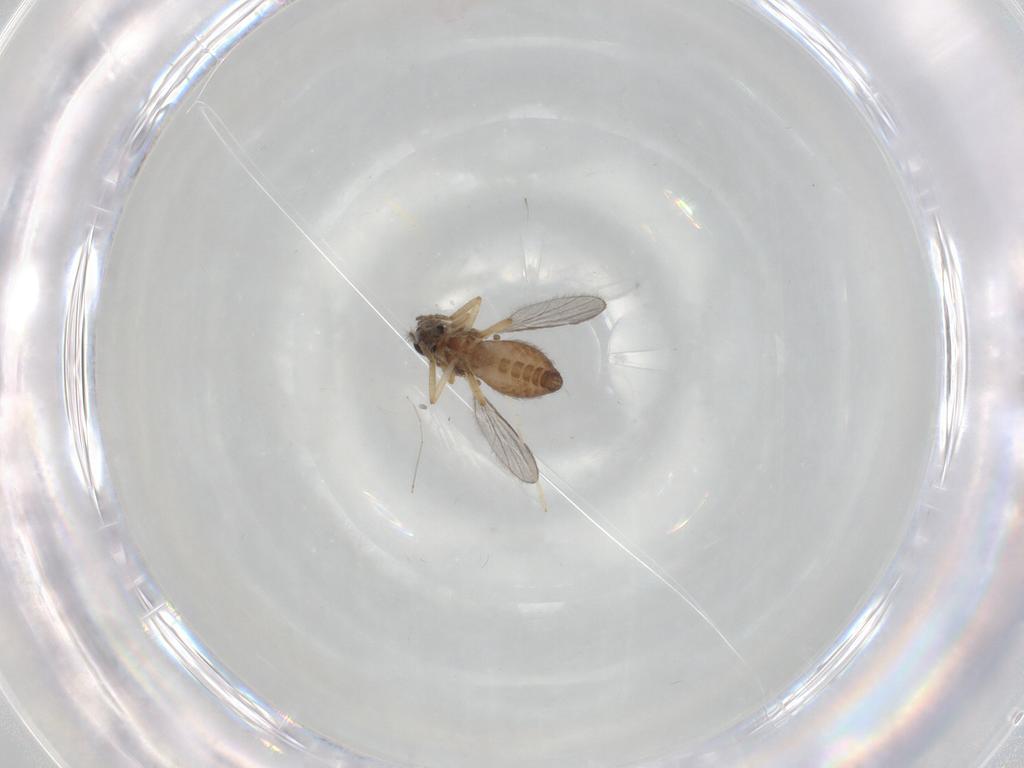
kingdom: Animalia
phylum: Arthropoda
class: Insecta
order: Diptera
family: Ceratopogonidae
